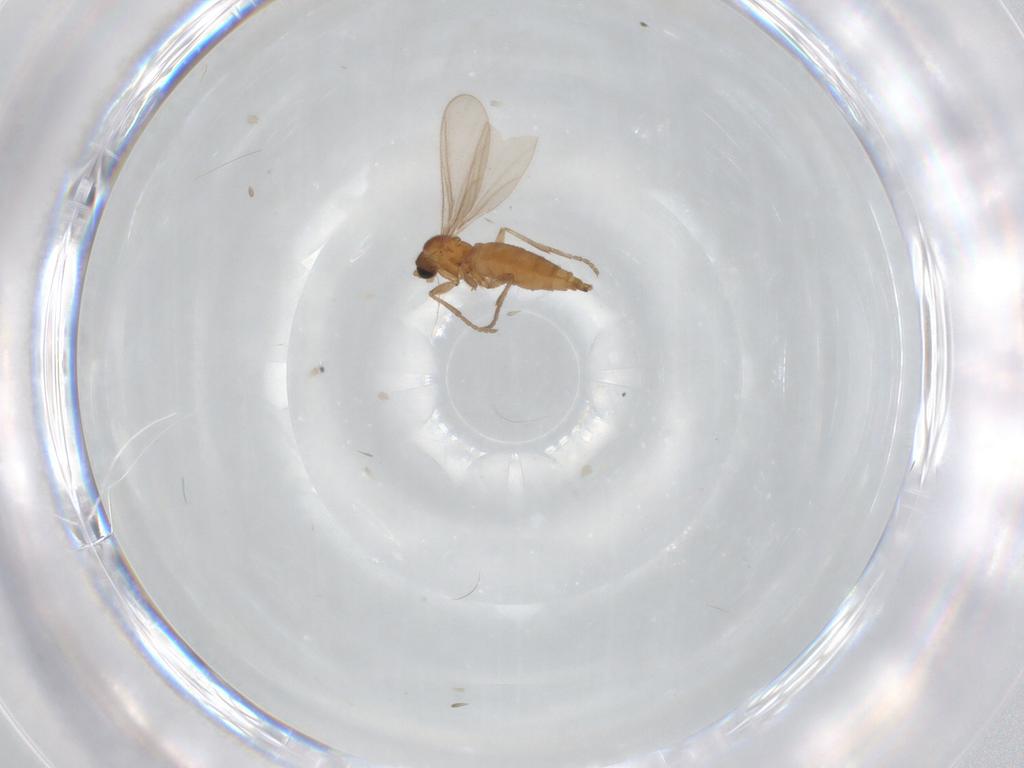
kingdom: Animalia
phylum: Arthropoda
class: Insecta
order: Diptera
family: Sciaridae
